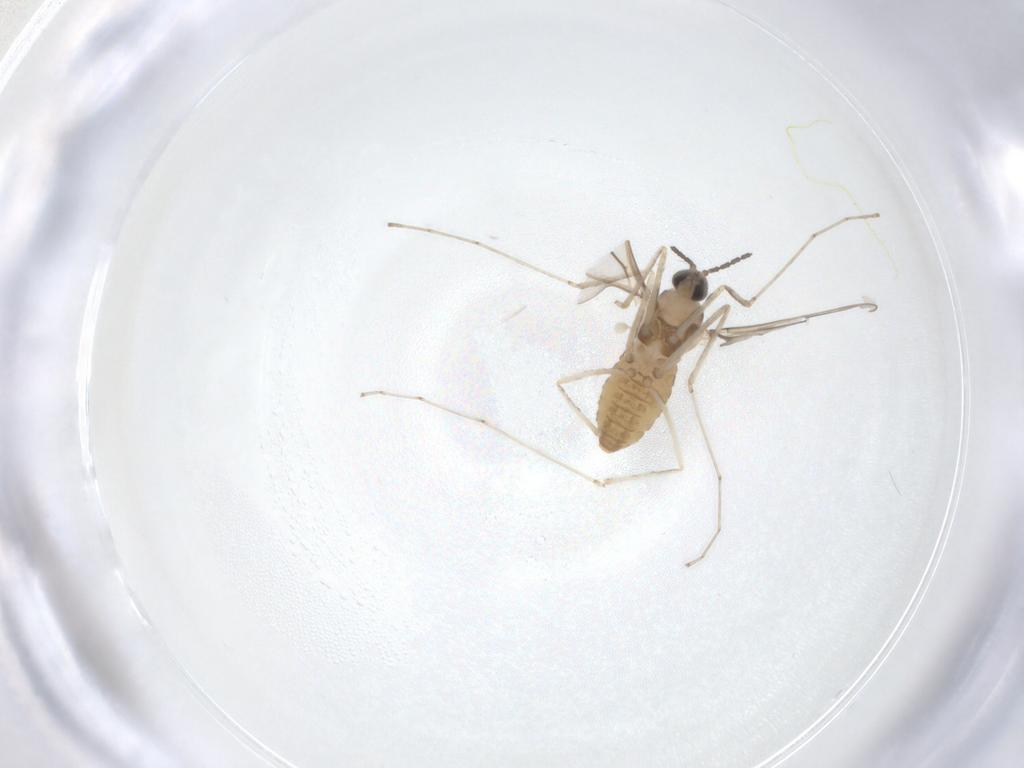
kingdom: Animalia
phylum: Arthropoda
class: Insecta
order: Diptera
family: Cecidomyiidae
